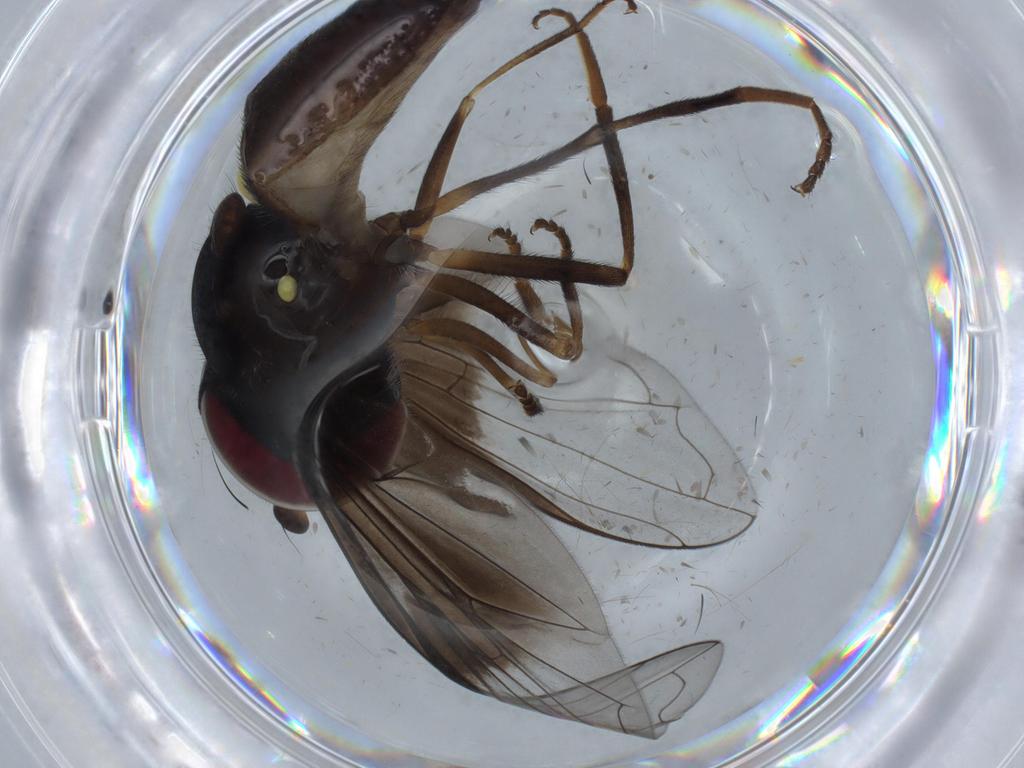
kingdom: Animalia
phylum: Arthropoda
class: Insecta
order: Diptera
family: Syrphidae
